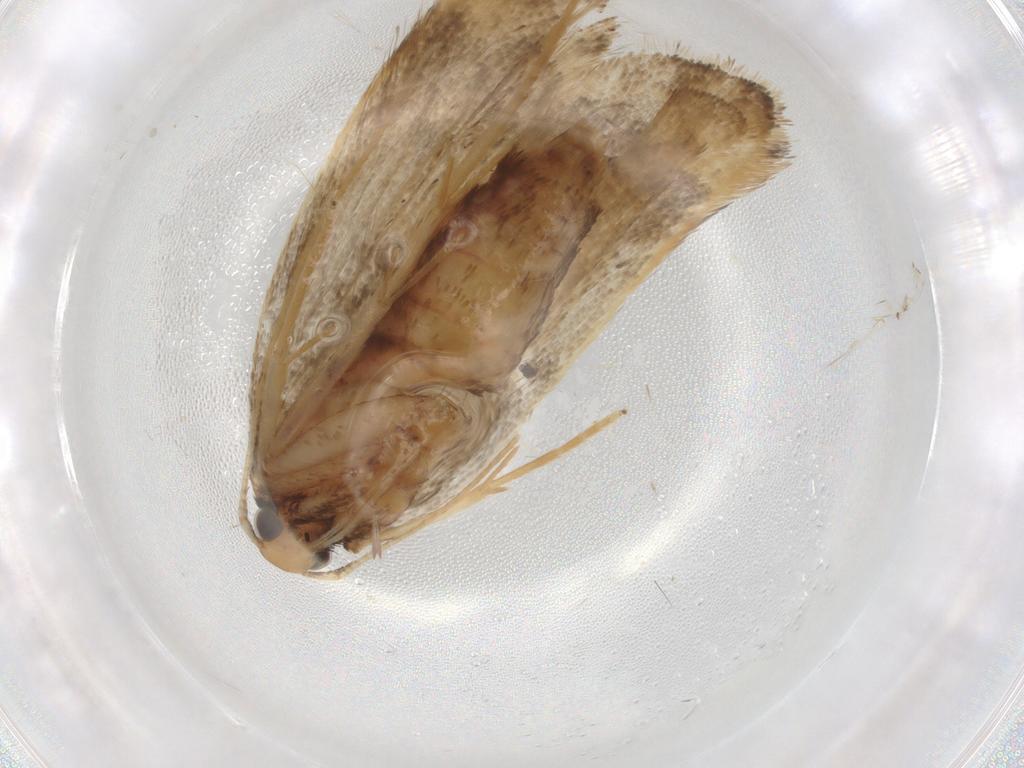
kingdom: Animalia
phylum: Arthropoda
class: Insecta
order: Lepidoptera
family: Lecithoceridae
